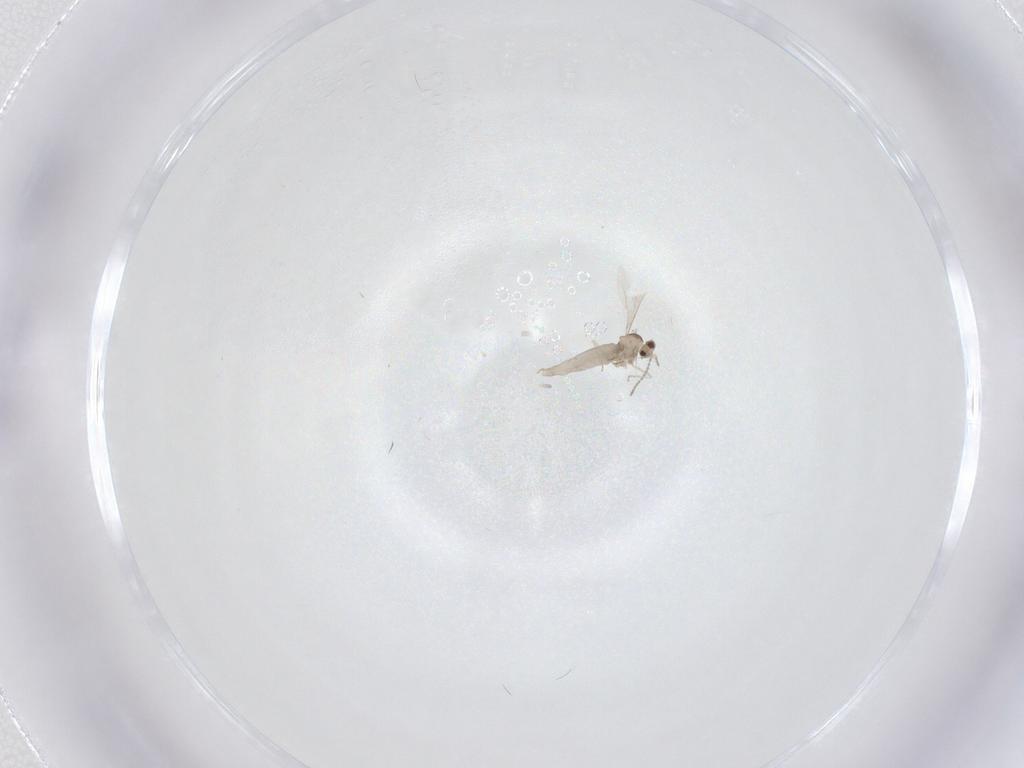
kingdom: Animalia
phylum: Arthropoda
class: Insecta
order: Diptera
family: Cecidomyiidae
